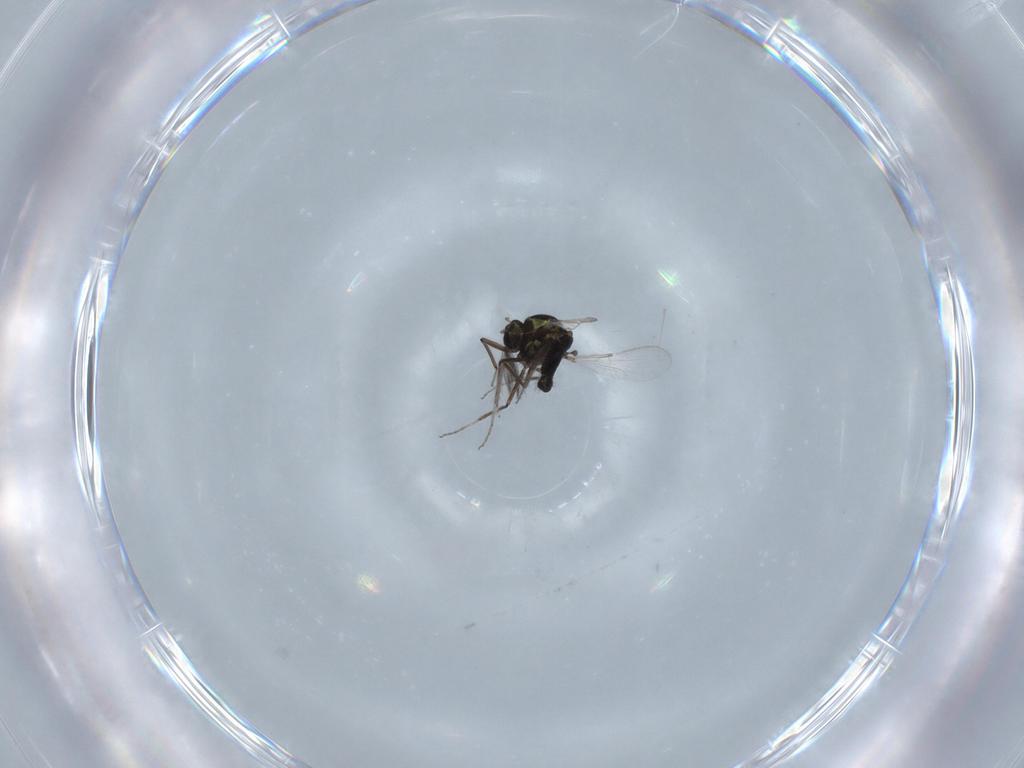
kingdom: Animalia
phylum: Arthropoda
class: Insecta
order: Diptera
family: Ceratopogonidae
